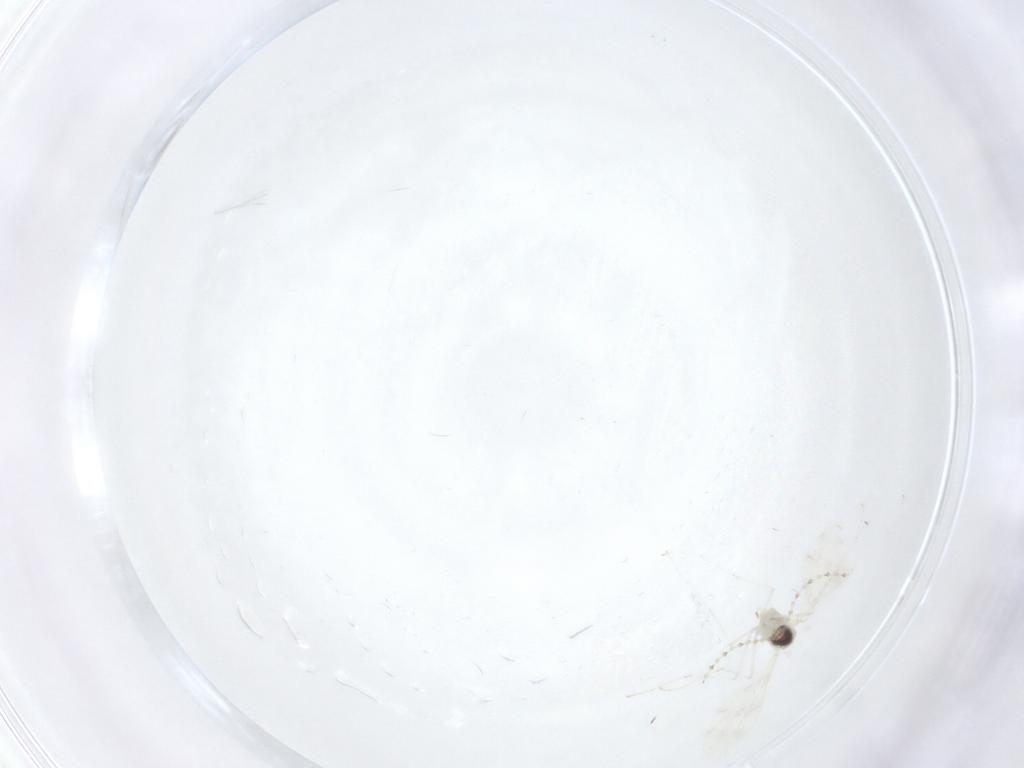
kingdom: Animalia
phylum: Arthropoda
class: Insecta
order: Diptera
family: Cecidomyiidae
